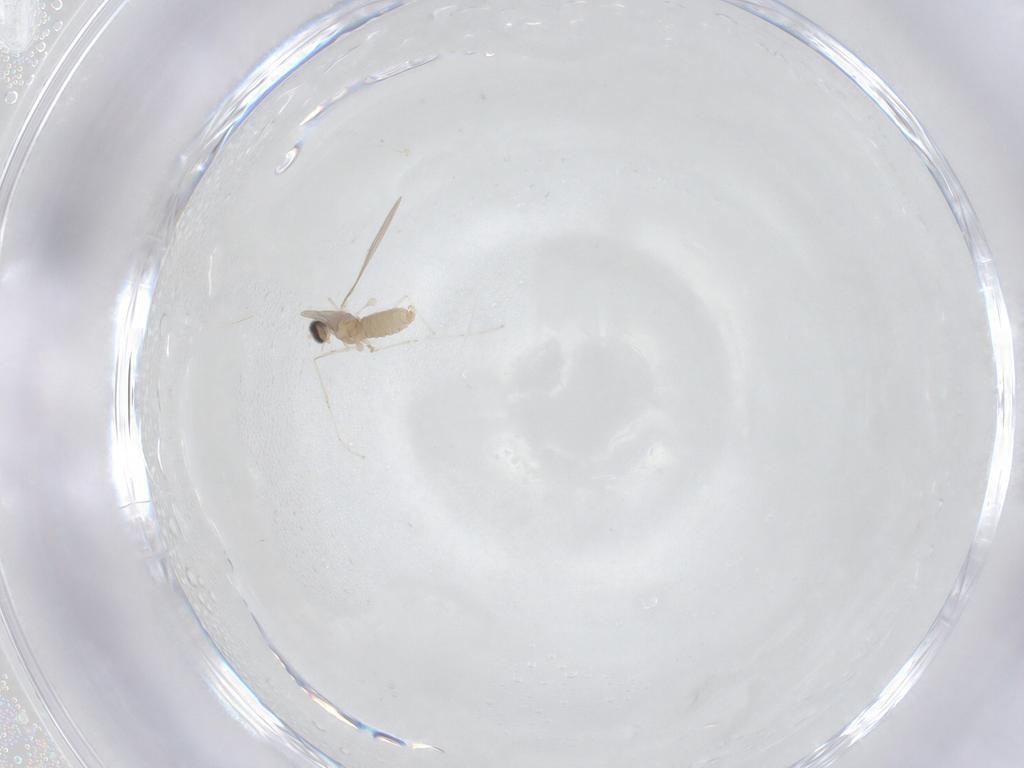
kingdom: Animalia
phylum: Arthropoda
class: Insecta
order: Diptera
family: Cecidomyiidae
